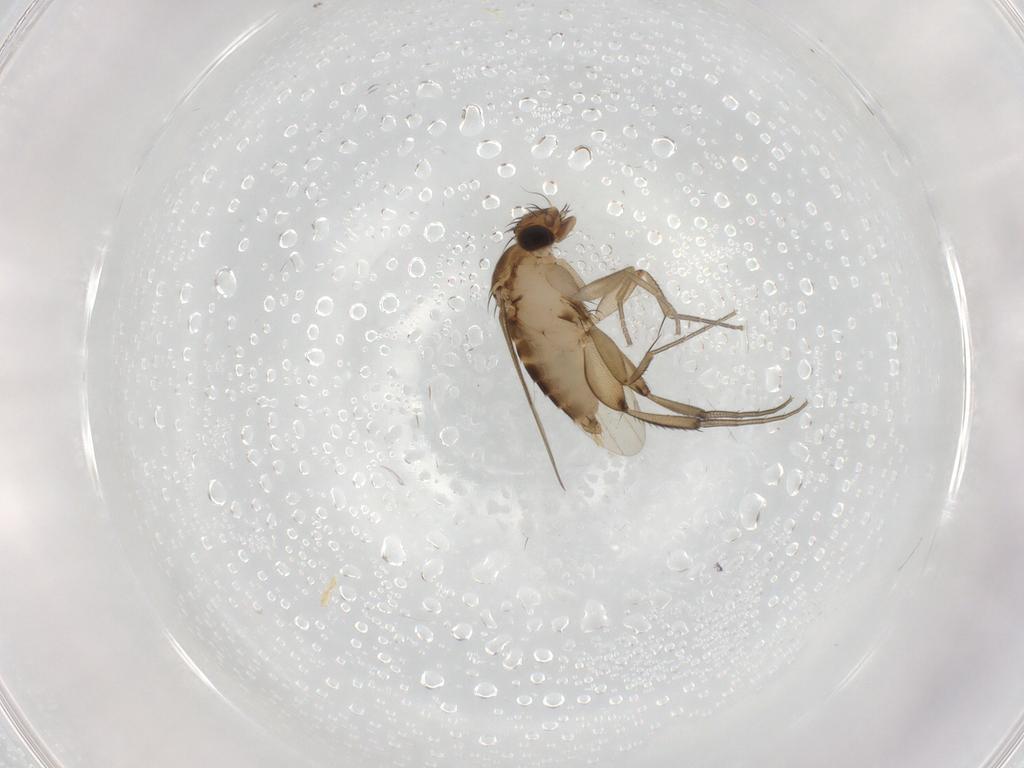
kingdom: Animalia
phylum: Arthropoda
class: Insecta
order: Diptera
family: Phoridae
